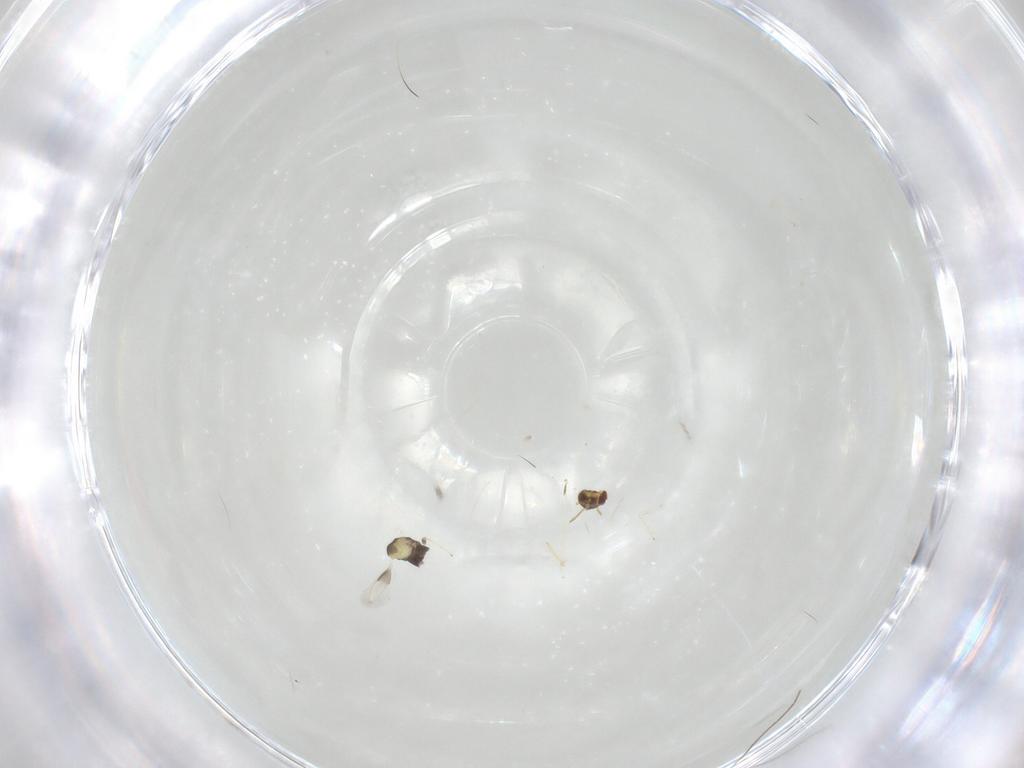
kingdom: Animalia
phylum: Arthropoda
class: Insecta
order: Hymenoptera
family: Aphelinidae
